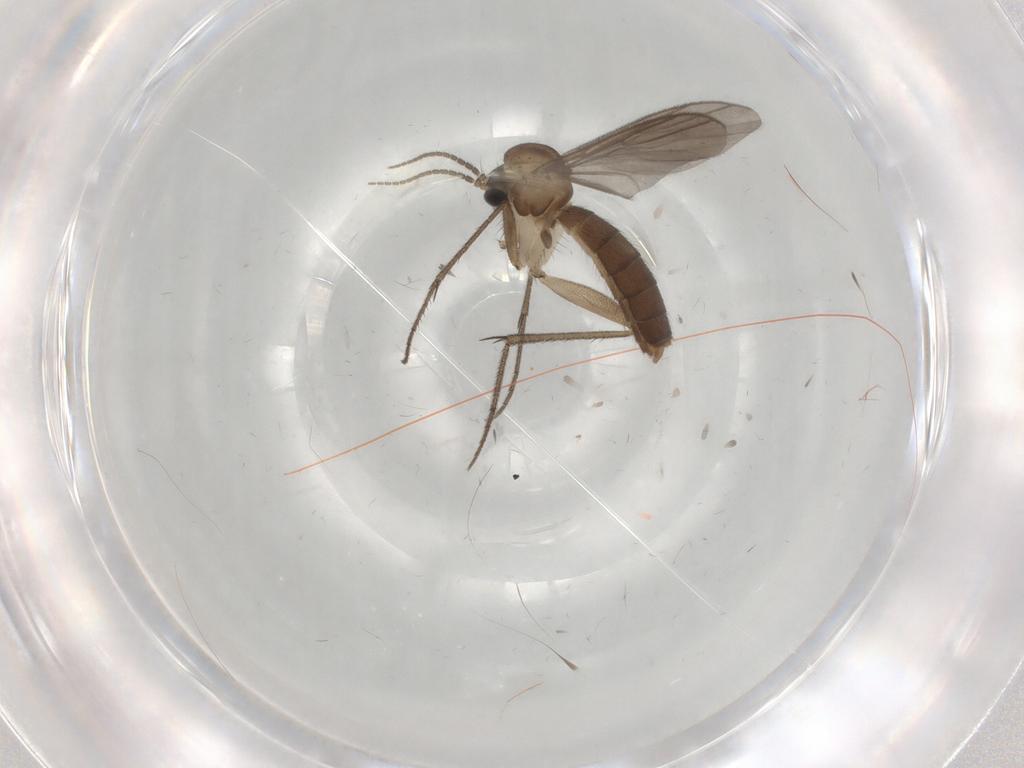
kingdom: Animalia
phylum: Arthropoda
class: Insecta
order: Diptera
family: Sciaridae
